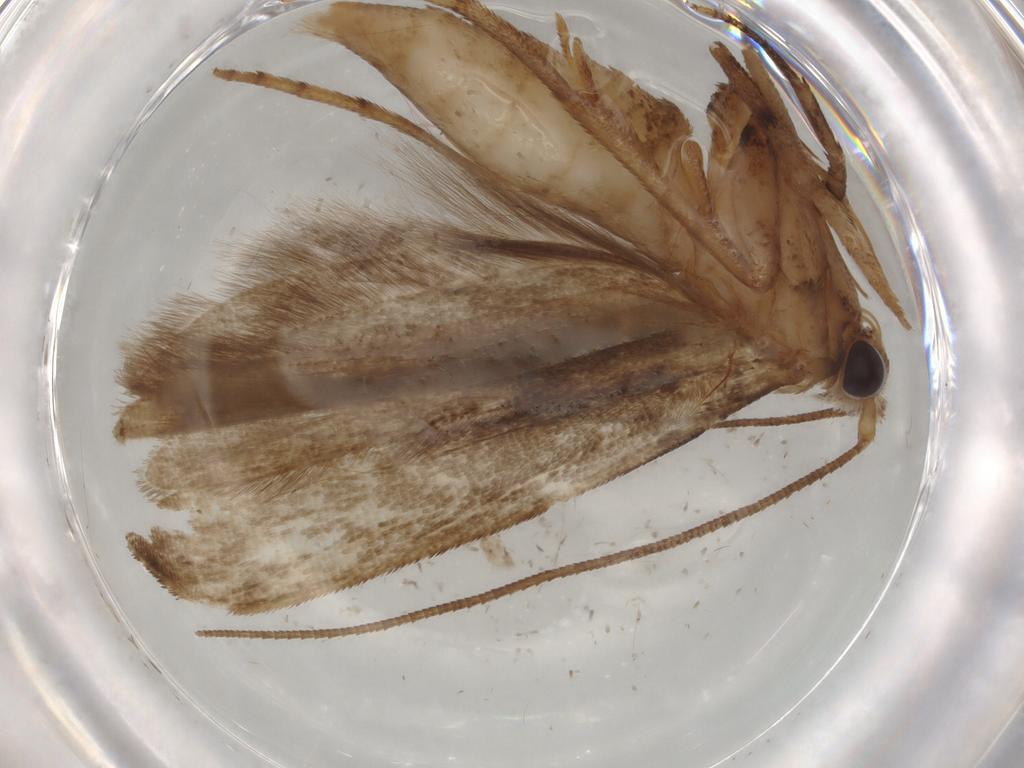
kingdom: Animalia
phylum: Arthropoda
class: Insecta
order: Lepidoptera
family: Yponomeutidae
